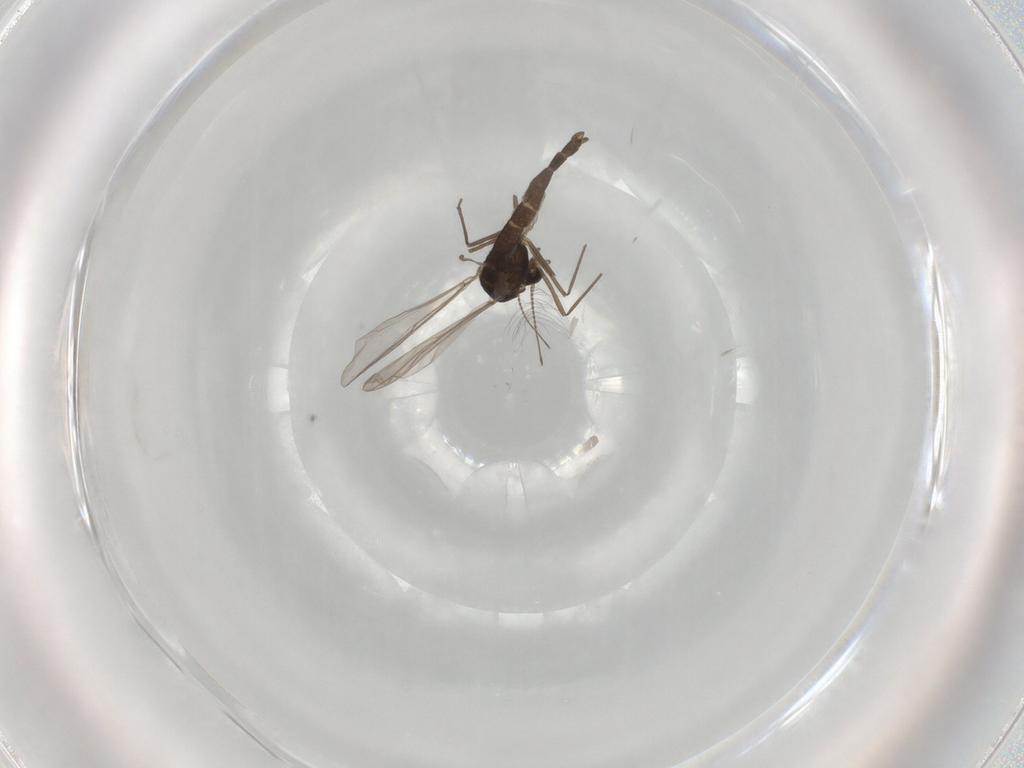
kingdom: Animalia
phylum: Arthropoda
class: Insecta
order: Diptera
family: Chironomidae
